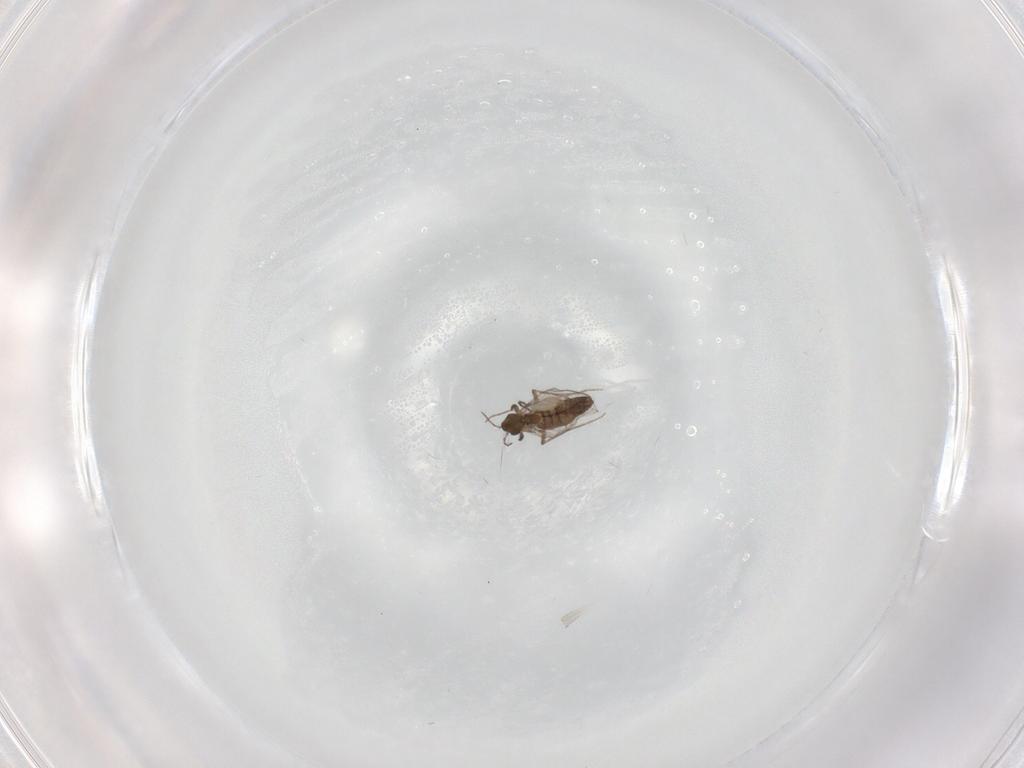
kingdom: Animalia
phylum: Arthropoda
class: Insecta
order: Diptera
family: Chironomidae
